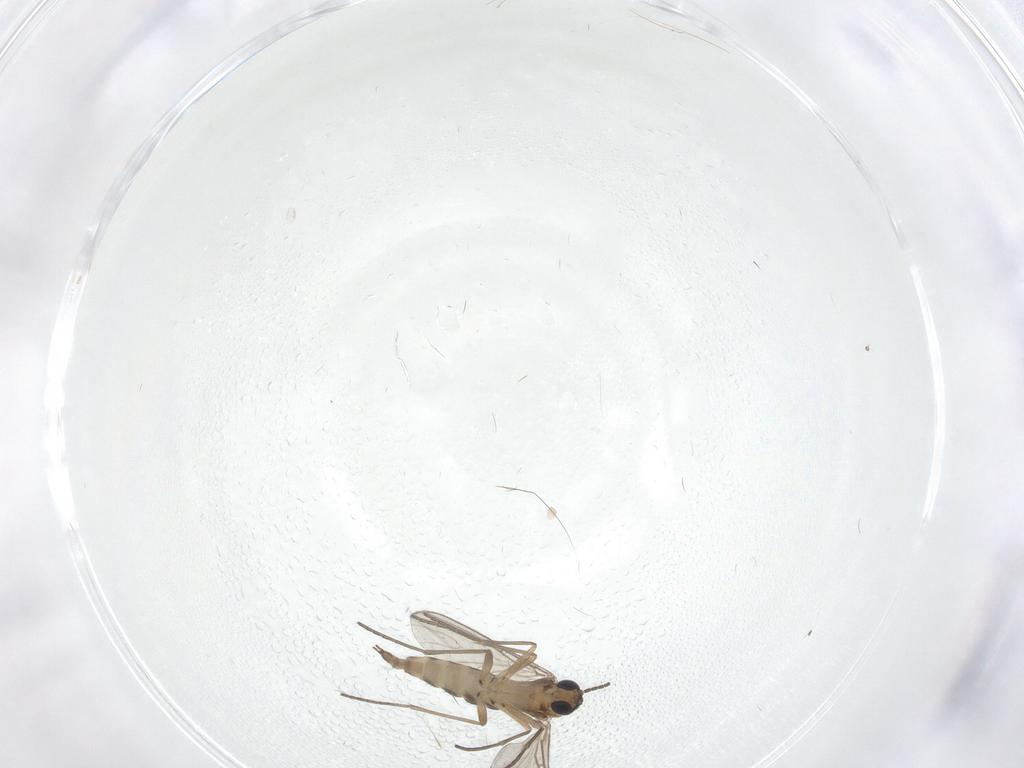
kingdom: Animalia
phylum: Arthropoda
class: Insecta
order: Diptera
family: Sciaridae
